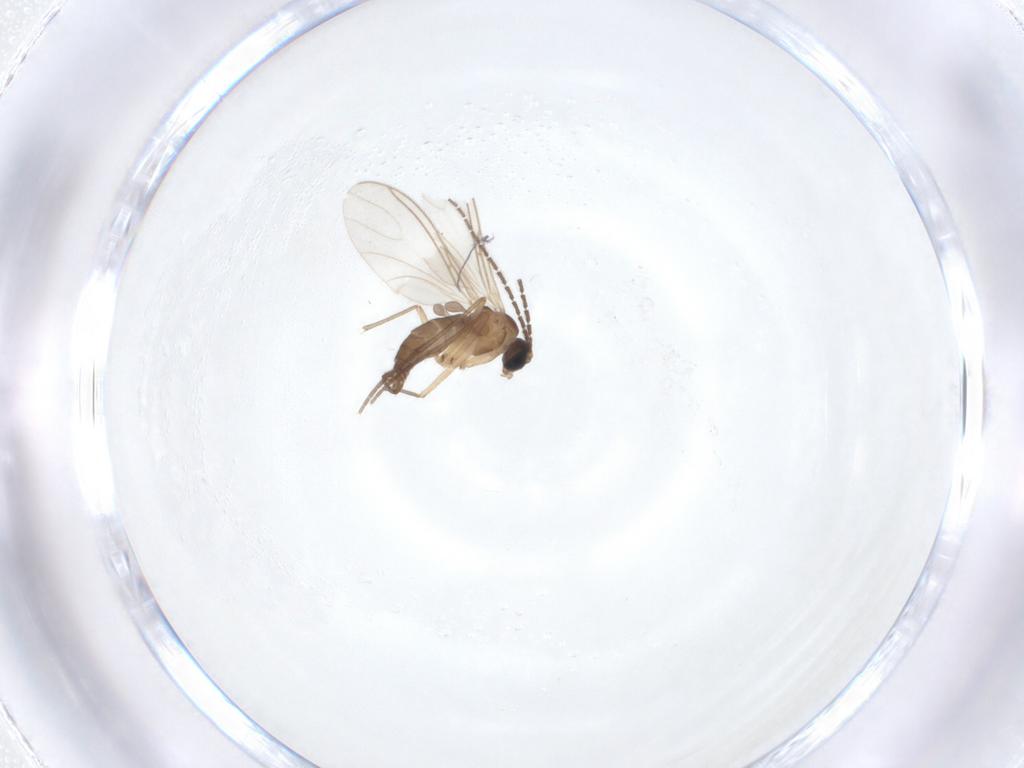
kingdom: Animalia
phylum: Arthropoda
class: Insecta
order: Diptera
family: Sciaridae
